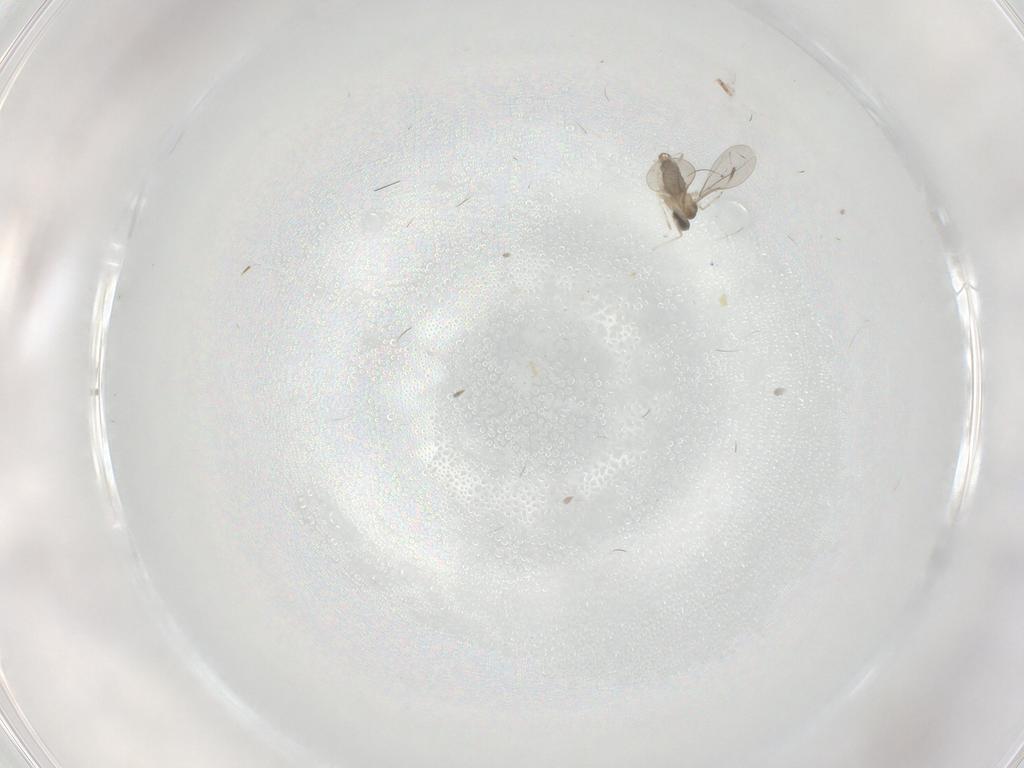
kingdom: Animalia
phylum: Arthropoda
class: Insecta
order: Diptera
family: Phoridae
